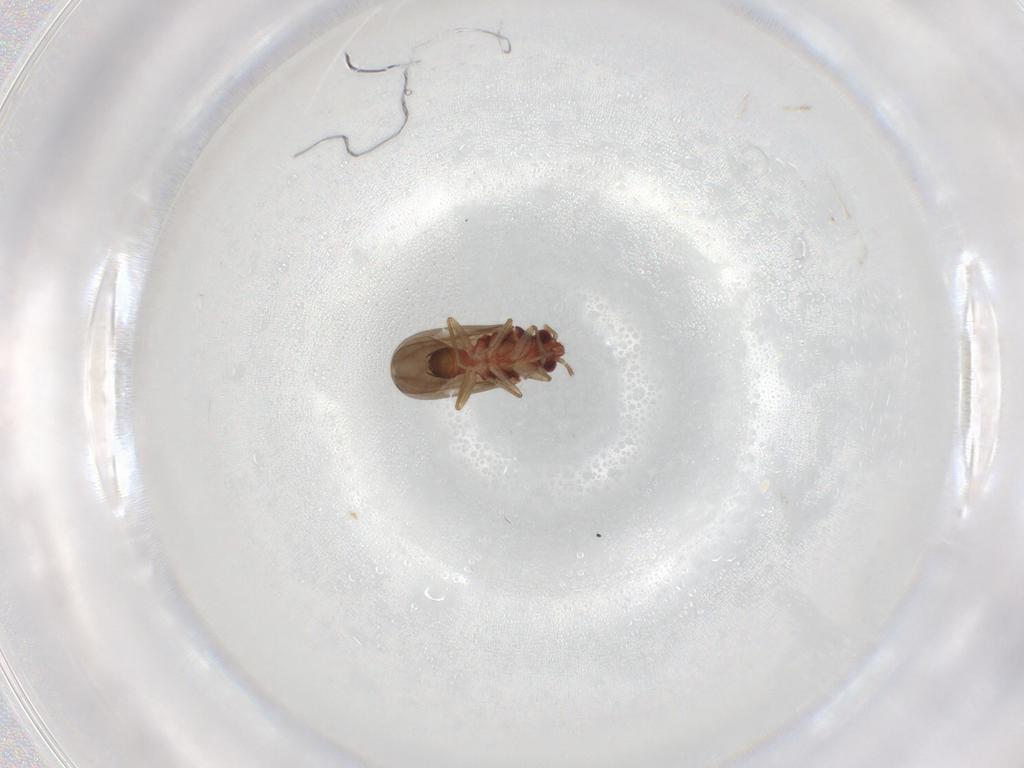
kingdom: Animalia
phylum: Arthropoda
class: Insecta
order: Hemiptera
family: Ceratocombidae
